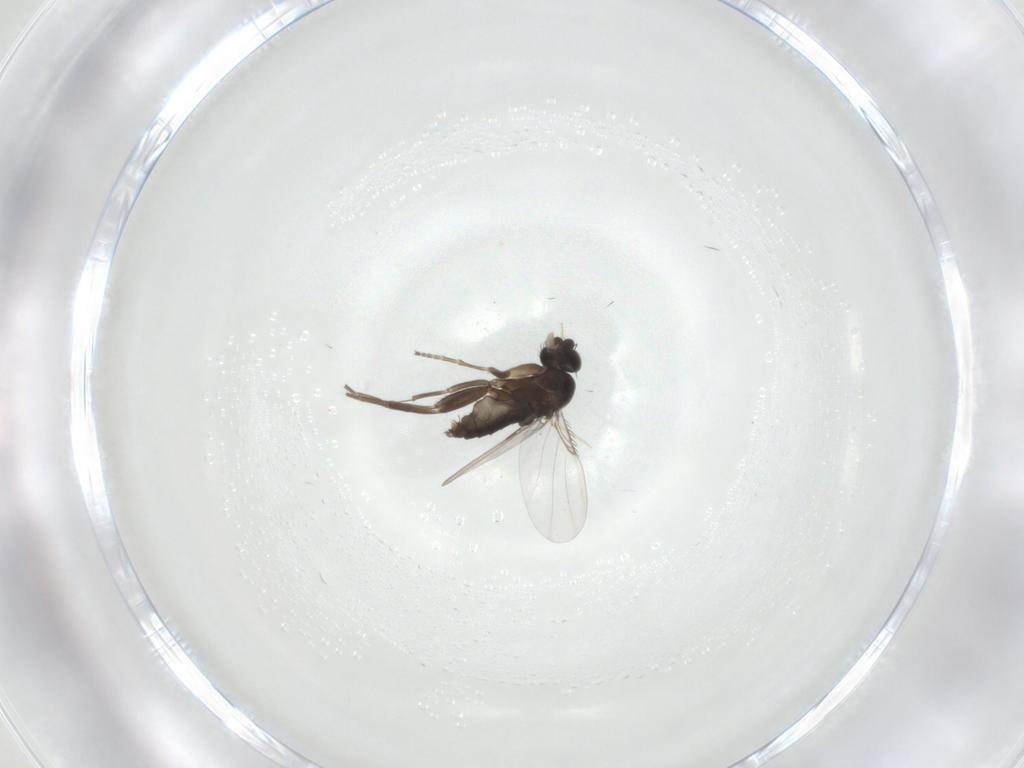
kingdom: Animalia
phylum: Arthropoda
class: Insecta
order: Diptera
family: Phoridae
